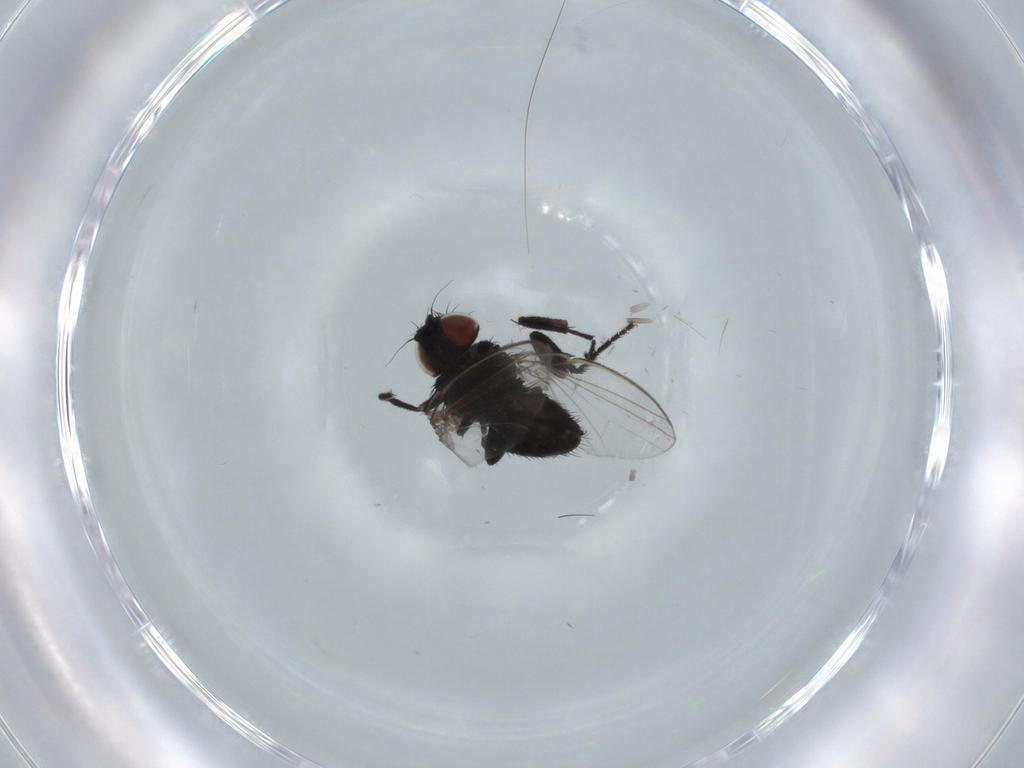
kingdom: Animalia
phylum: Arthropoda
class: Insecta
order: Diptera
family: Milichiidae
